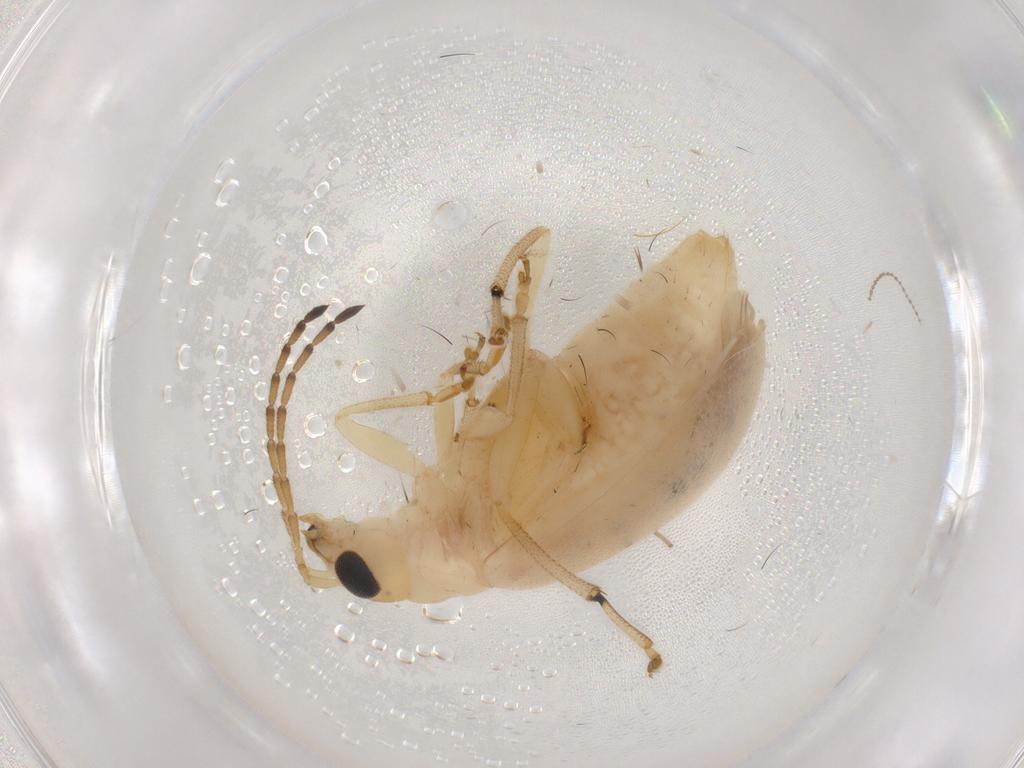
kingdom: Animalia
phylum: Arthropoda
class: Insecta
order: Coleoptera
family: Chrysomelidae
